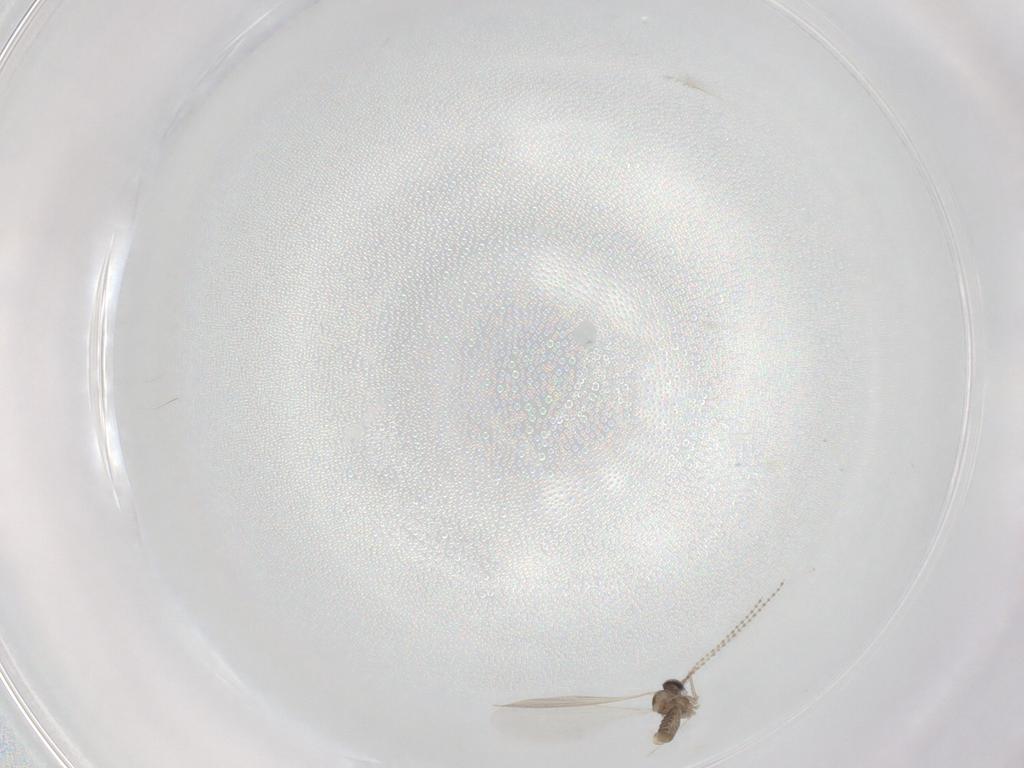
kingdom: Animalia
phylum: Arthropoda
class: Insecta
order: Diptera
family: Cecidomyiidae
